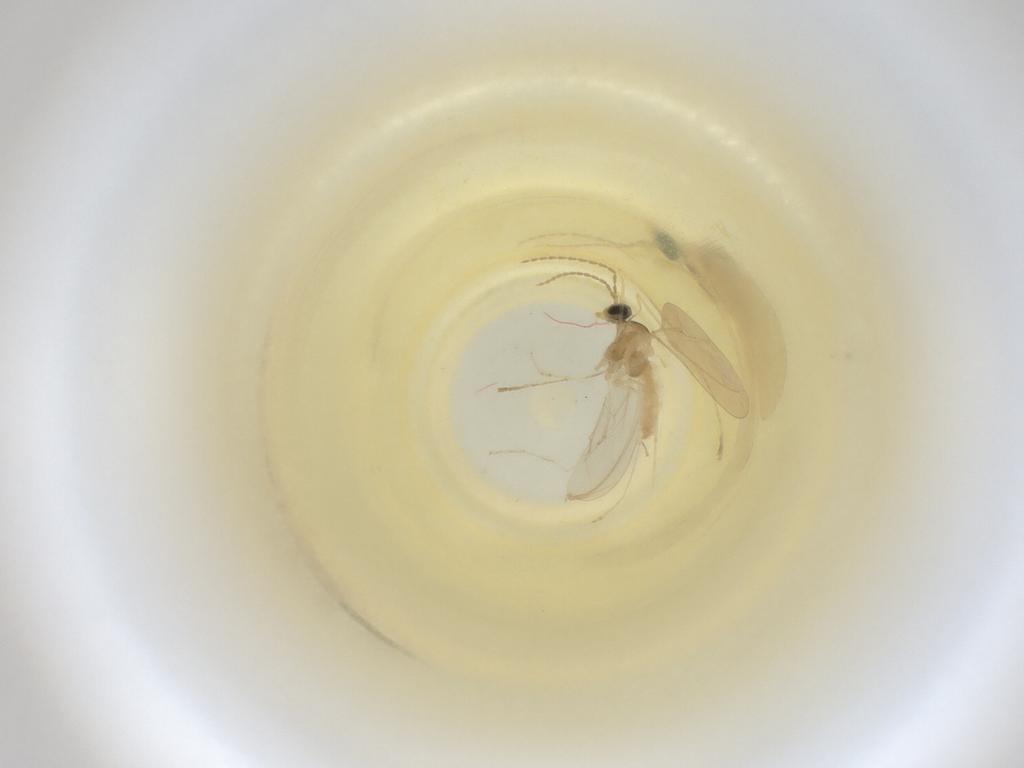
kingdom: Animalia
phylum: Arthropoda
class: Insecta
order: Diptera
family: Cecidomyiidae
